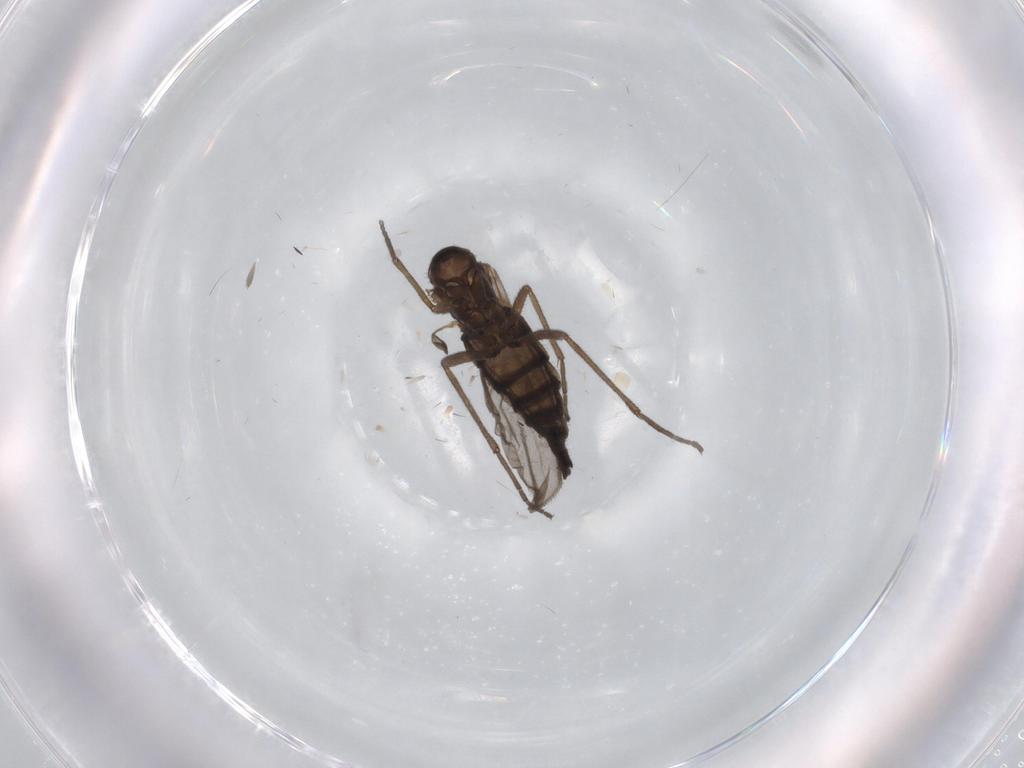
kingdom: Animalia
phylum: Arthropoda
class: Insecta
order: Diptera
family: Sciaridae
